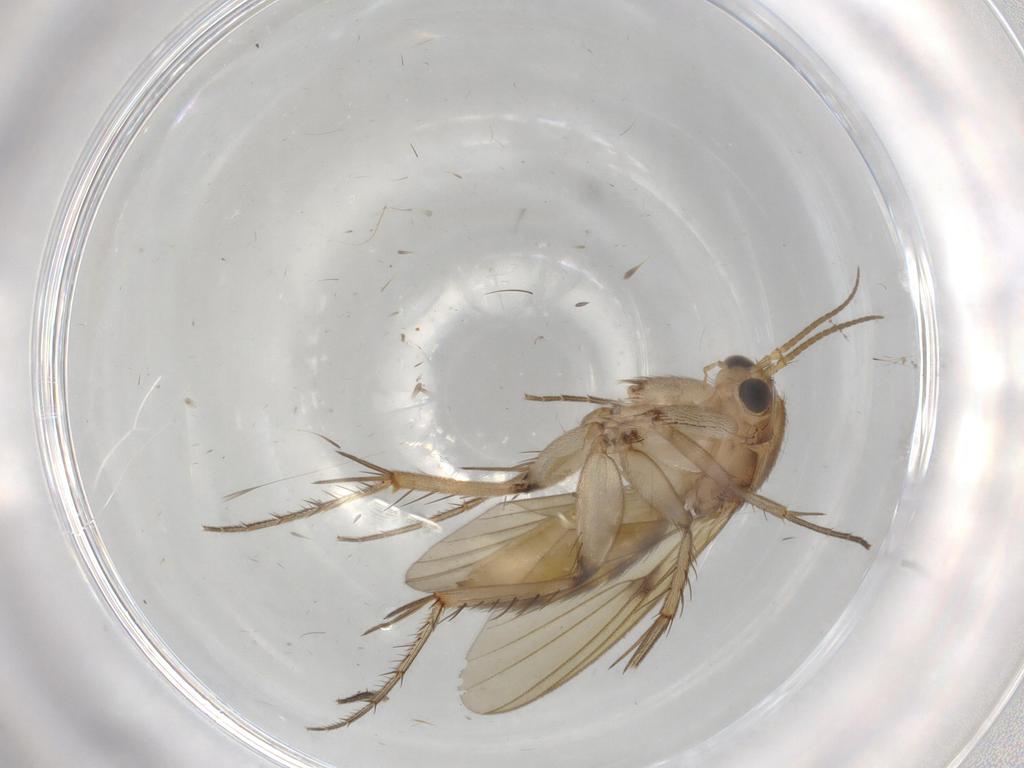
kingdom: Animalia
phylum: Arthropoda
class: Insecta
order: Diptera
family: Mycetophilidae
